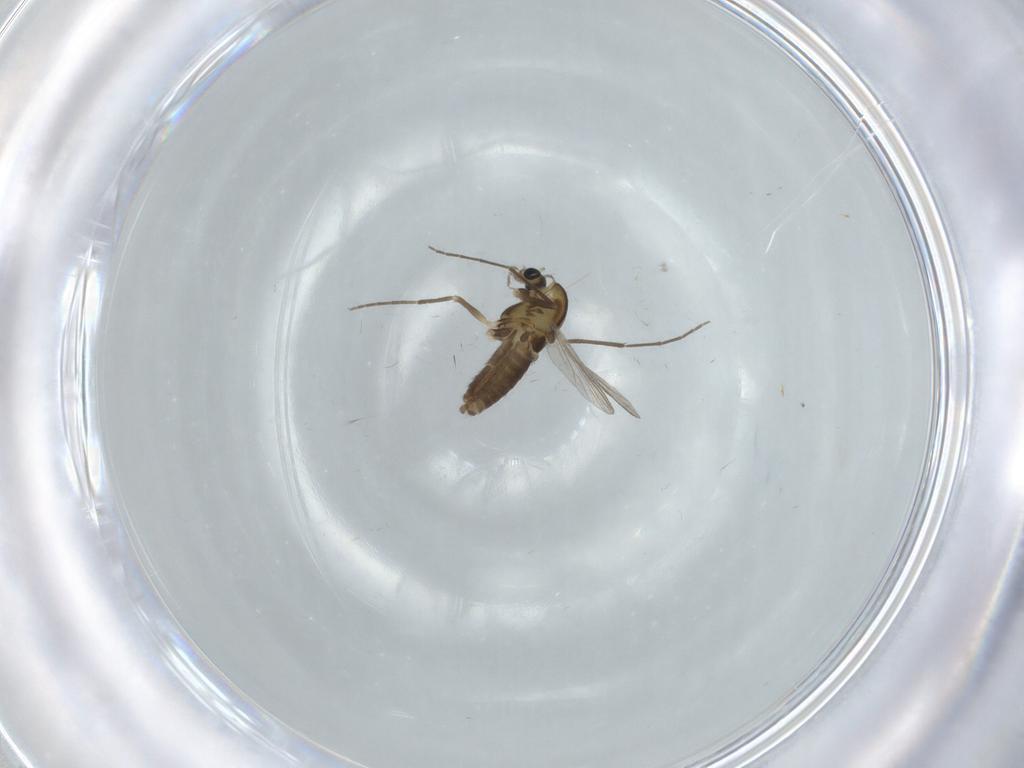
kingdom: Animalia
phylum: Arthropoda
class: Insecta
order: Diptera
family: Chironomidae
